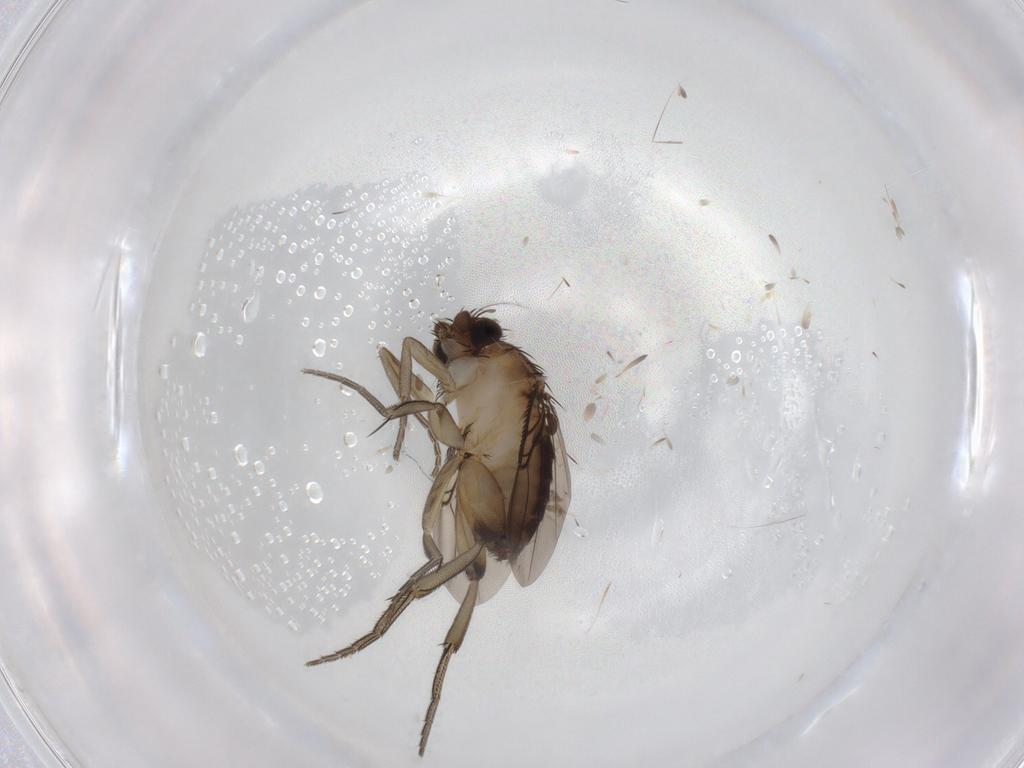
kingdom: Animalia
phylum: Arthropoda
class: Insecta
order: Diptera
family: Phoridae
